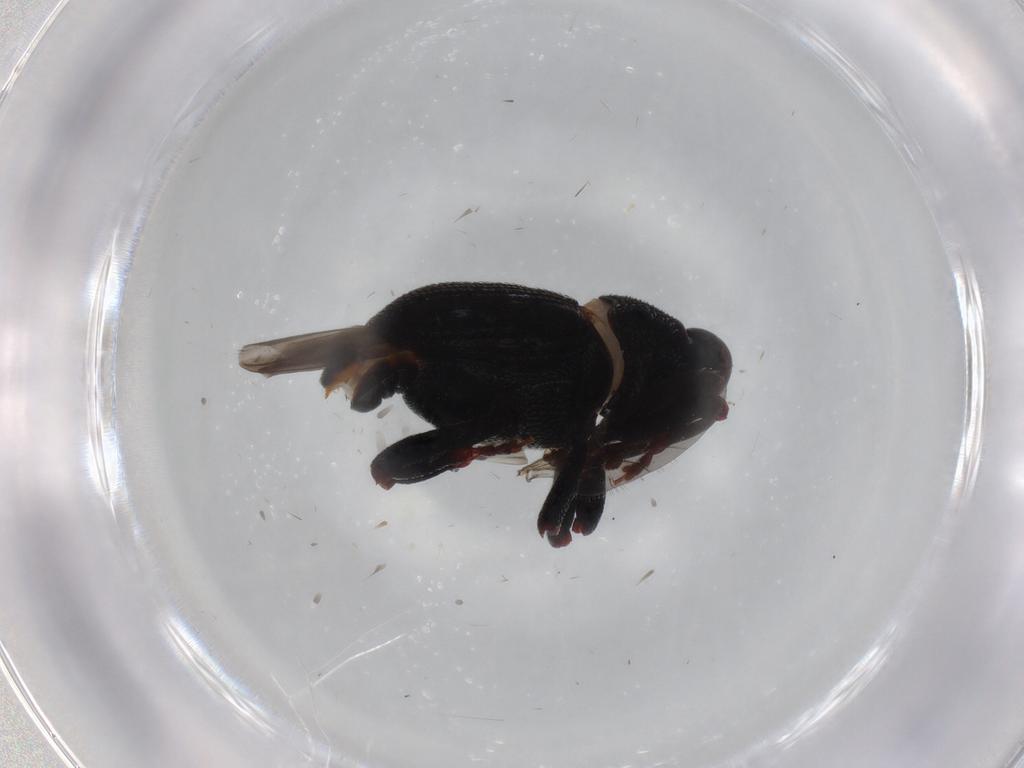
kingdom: Animalia
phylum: Arthropoda
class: Insecta
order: Coleoptera
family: Curculionidae
